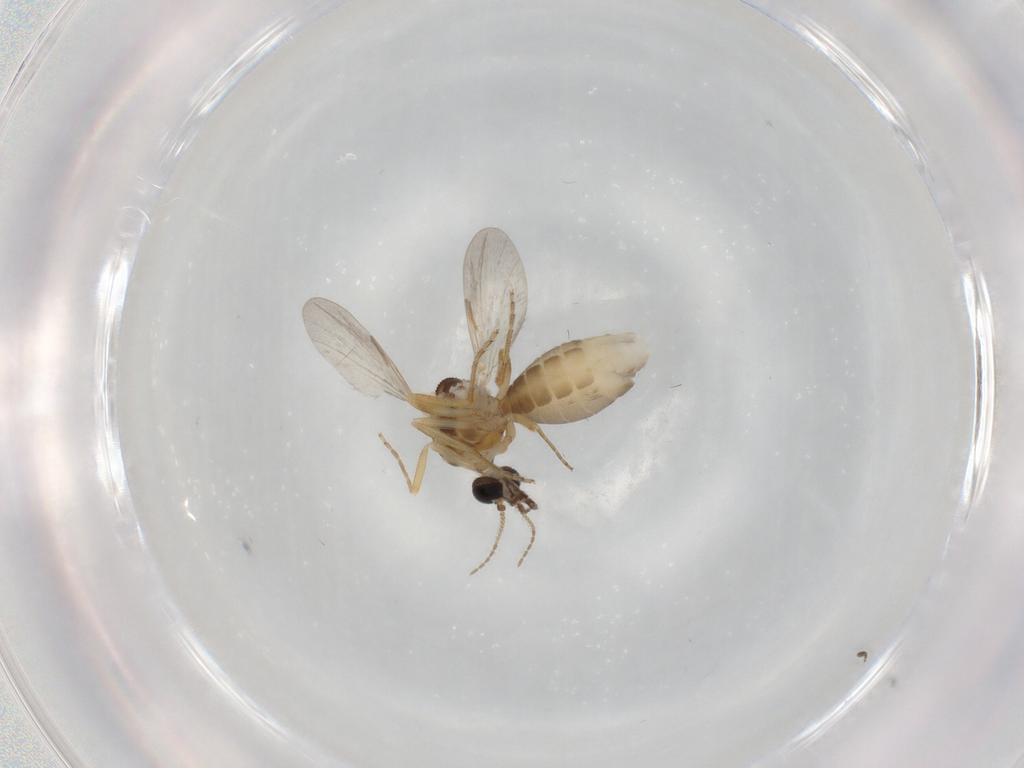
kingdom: Animalia
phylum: Arthropoda
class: Insecta
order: Diptera
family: Ceratopogonidae
